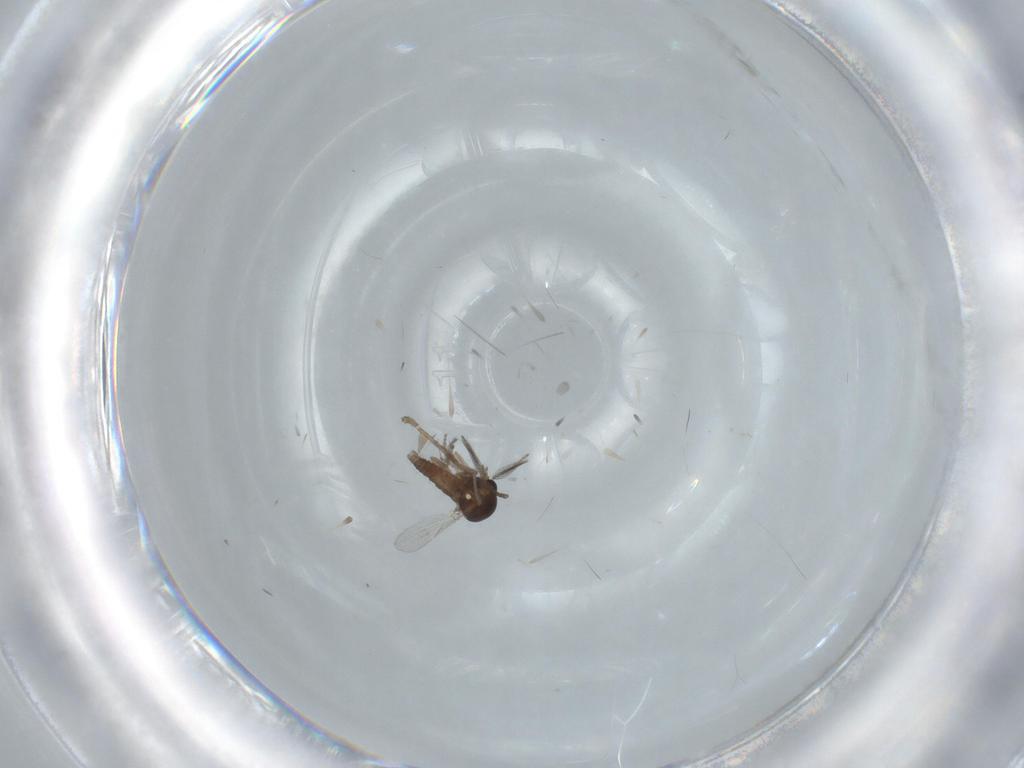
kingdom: Animalia
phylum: Arthropoda
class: Insecta
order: Diptera
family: Ceratopogonidae
